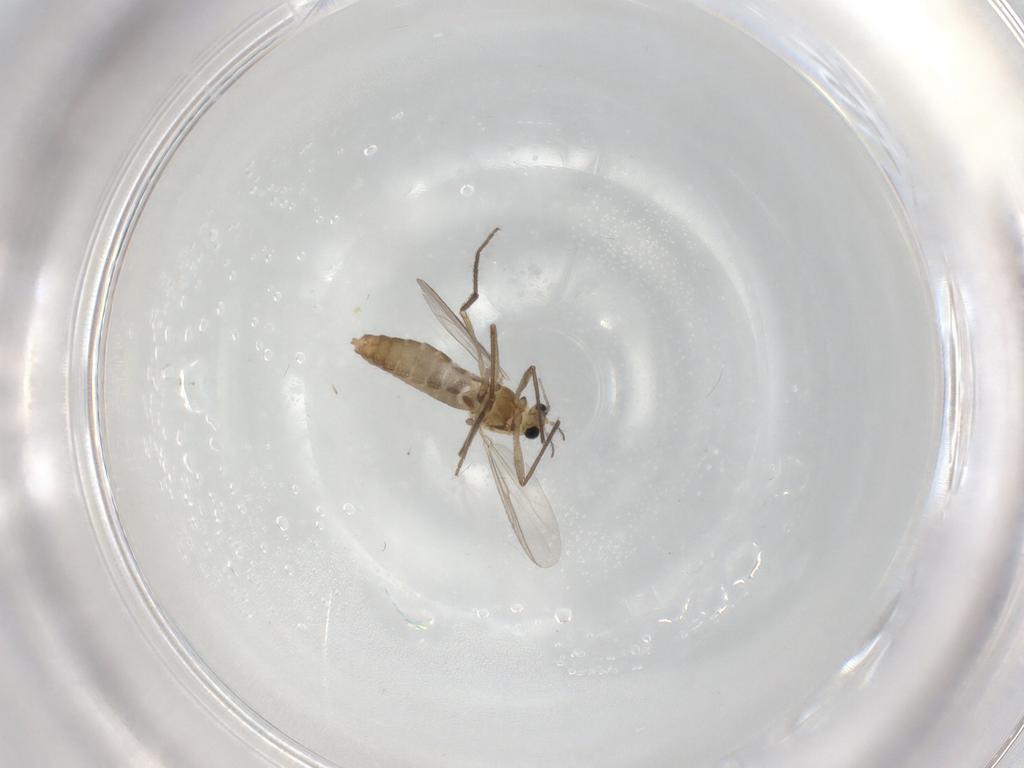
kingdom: Animalia
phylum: Arthropoda
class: Insecta
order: Diptera
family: Chironomidae
